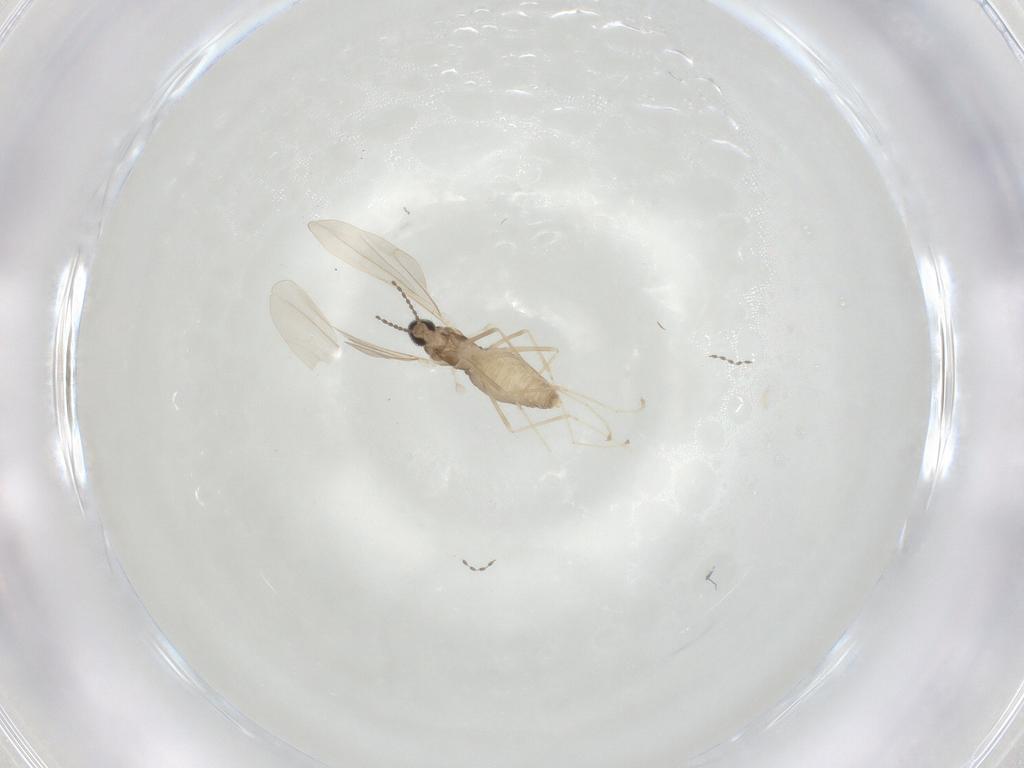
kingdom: Animalia
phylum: Arthropoda
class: Insecta
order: Diptera
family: Cecidomyiidae
